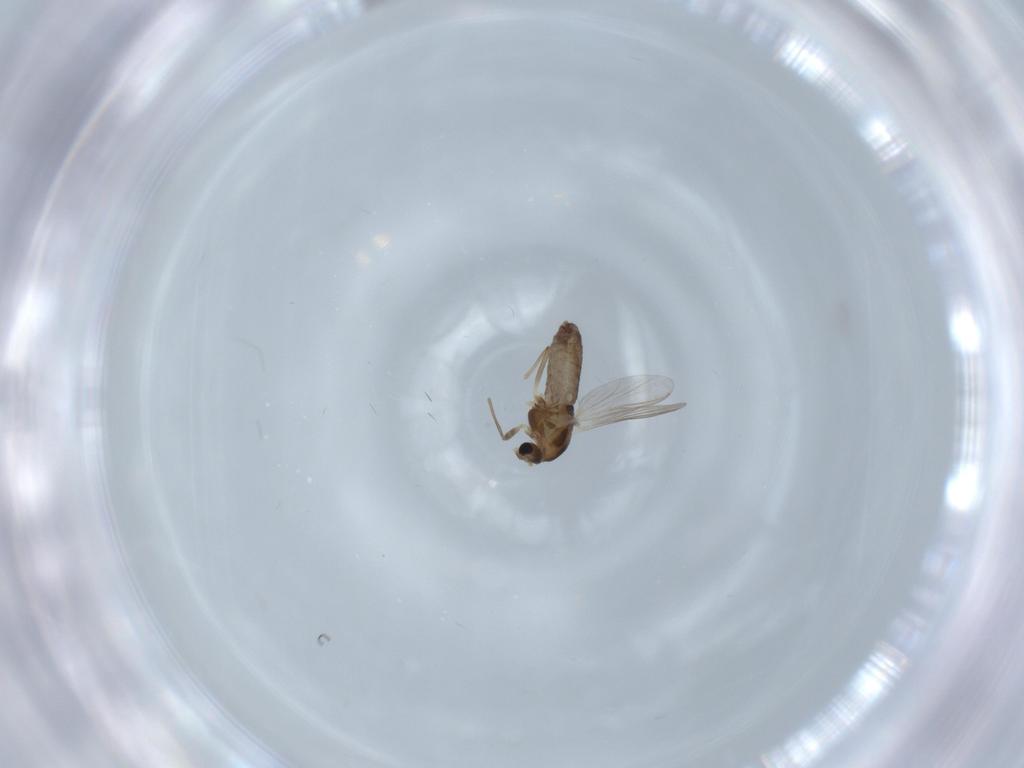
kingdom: Animalia
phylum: Arthropoda
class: Insecta
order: Diptera
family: Chironomidae
